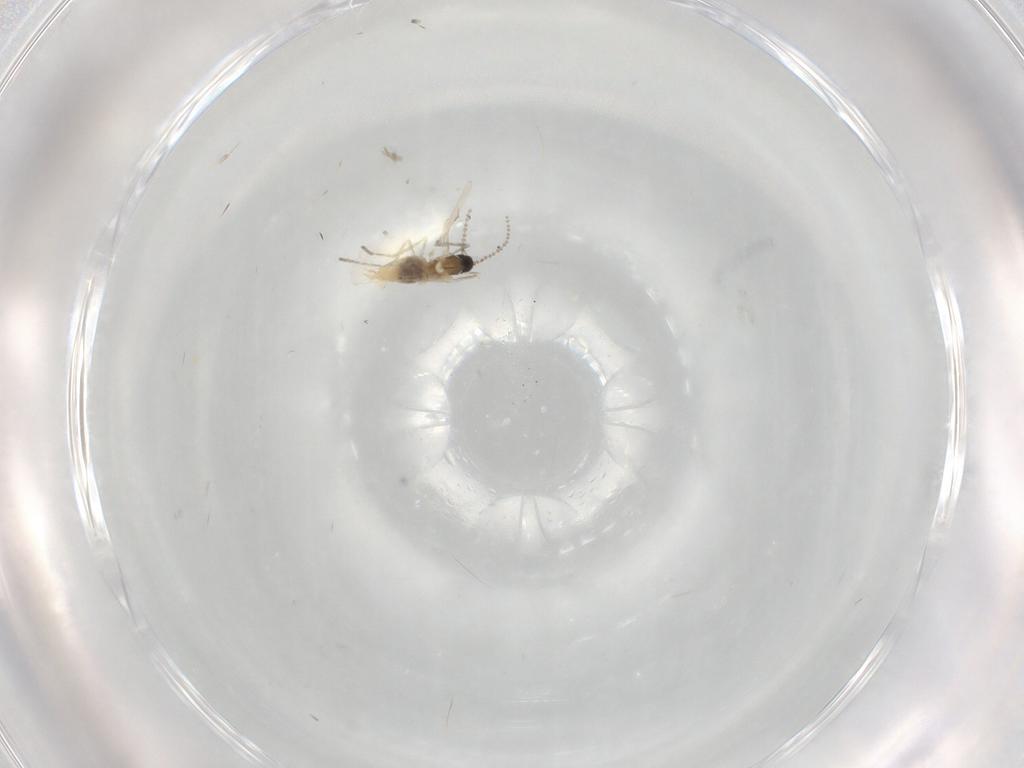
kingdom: Animalia
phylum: Arthropoda
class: Insecta
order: Diptera
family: Cecidomyiidae
